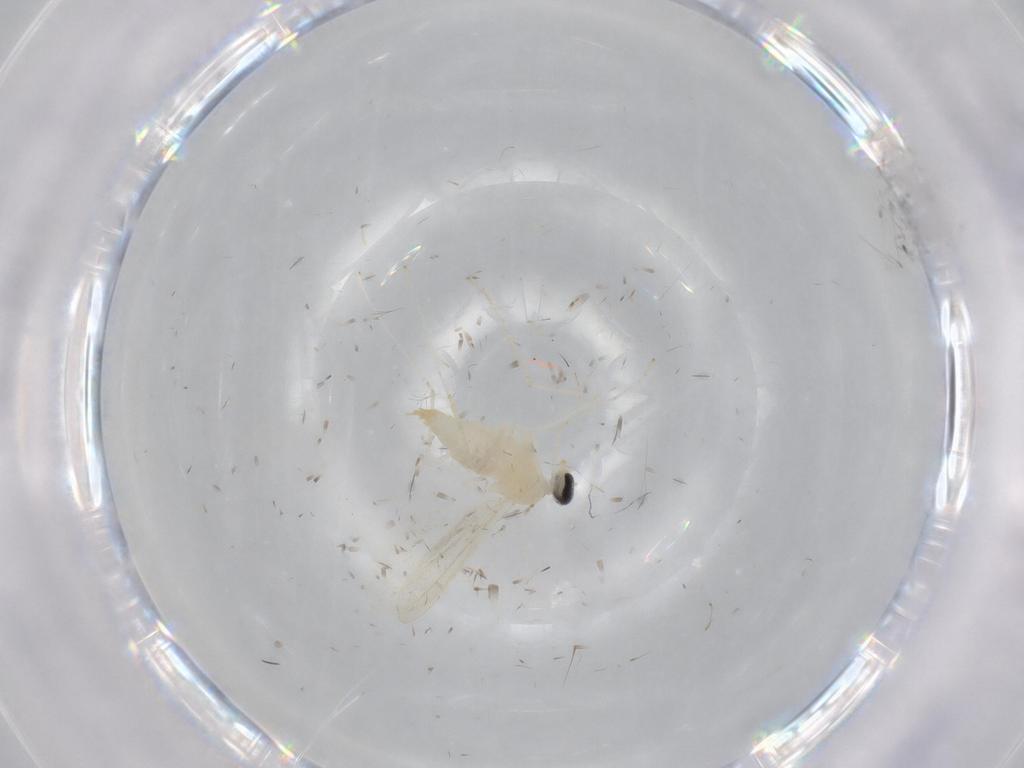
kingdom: Animalia
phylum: Arthropoda
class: Insecta
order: Diptera
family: Cecidomyiidae
